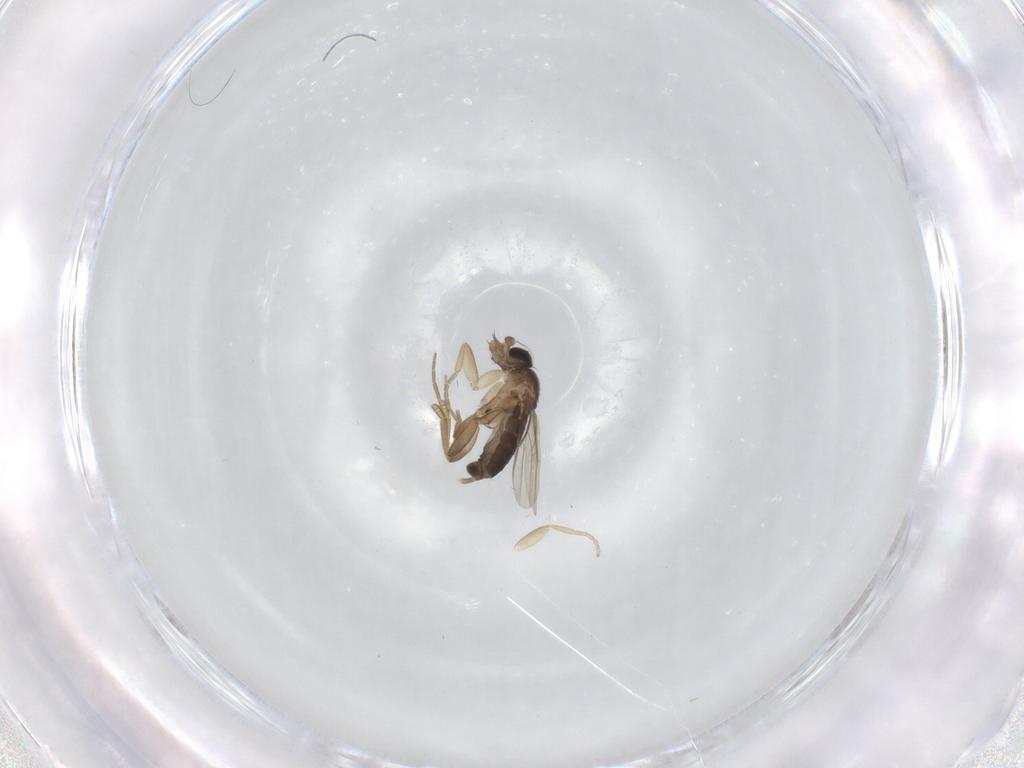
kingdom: Animalia
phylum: Arthropoda
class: Insecta
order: Diptera
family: Phoridae
